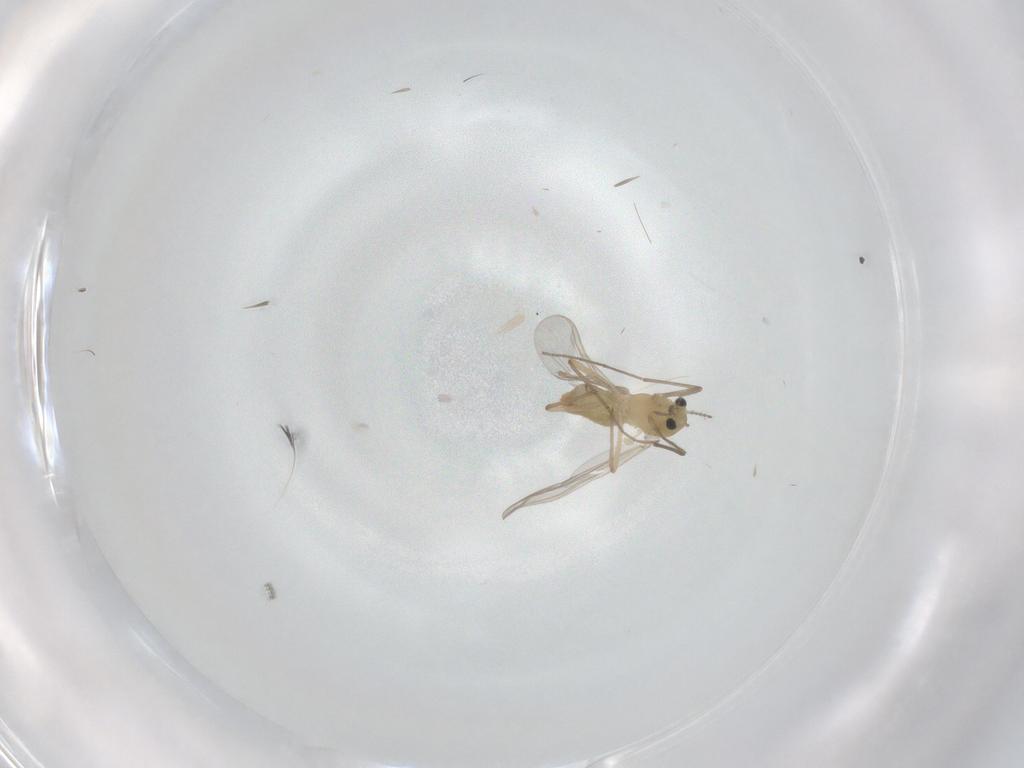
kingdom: Animalia
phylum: Arthropoda
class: Insecta
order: Diptera
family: Chironomidae
